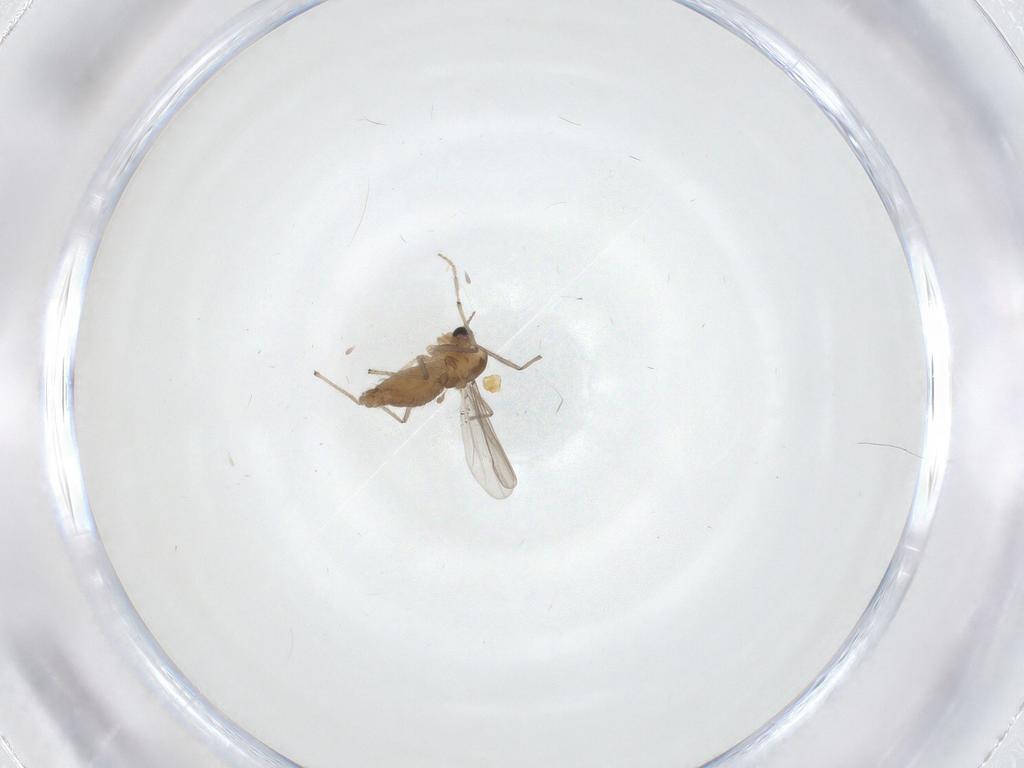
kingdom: Animalia
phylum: Arthropoda
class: Insecta
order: Diptera
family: Chironomidae
